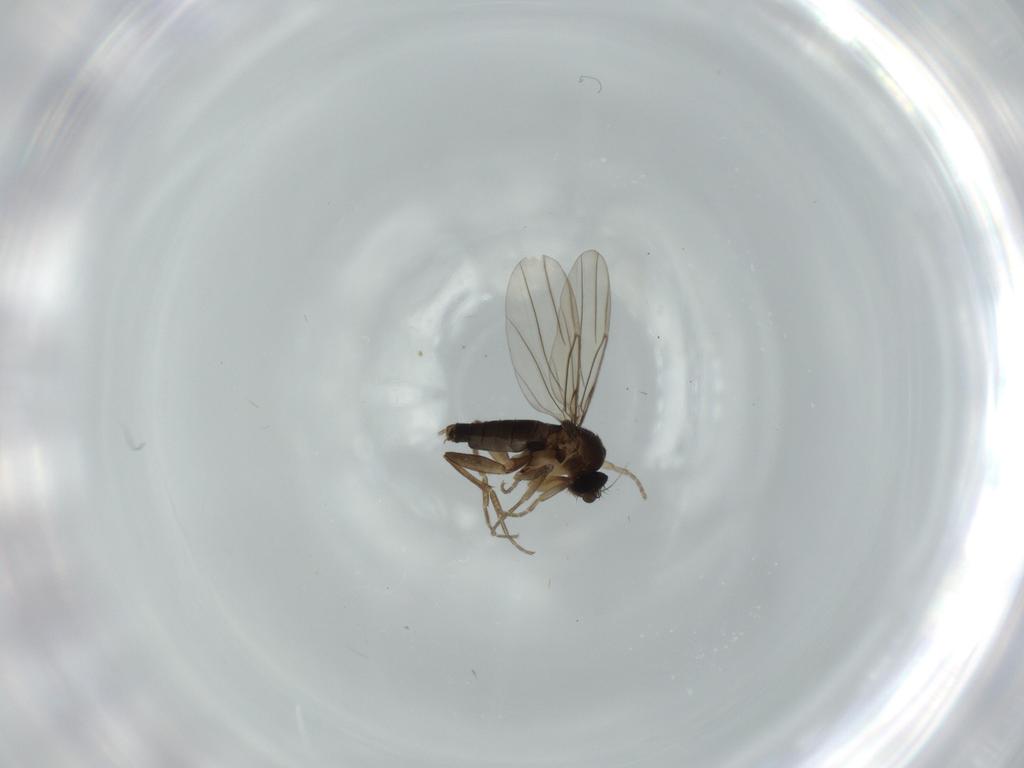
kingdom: Animalia
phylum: Arthropoda
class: Insecta
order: Diptera
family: Phoridae
